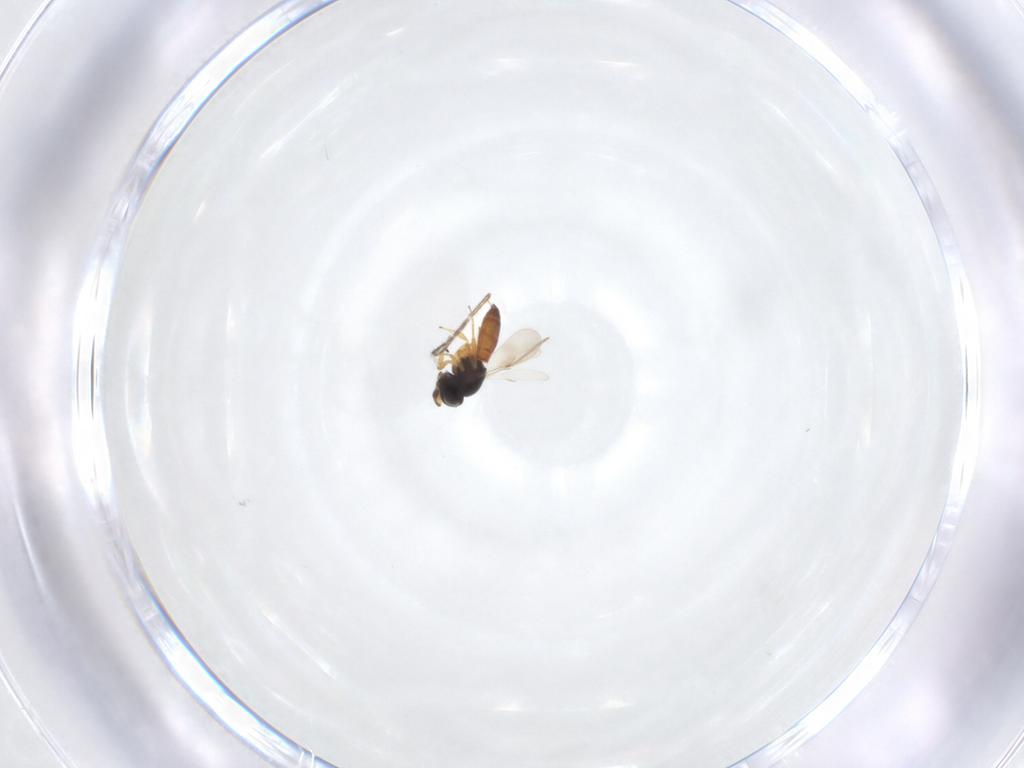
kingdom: Animalia
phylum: Arthropoda
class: Insecta
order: Hymenoptera
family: Scelionidae
